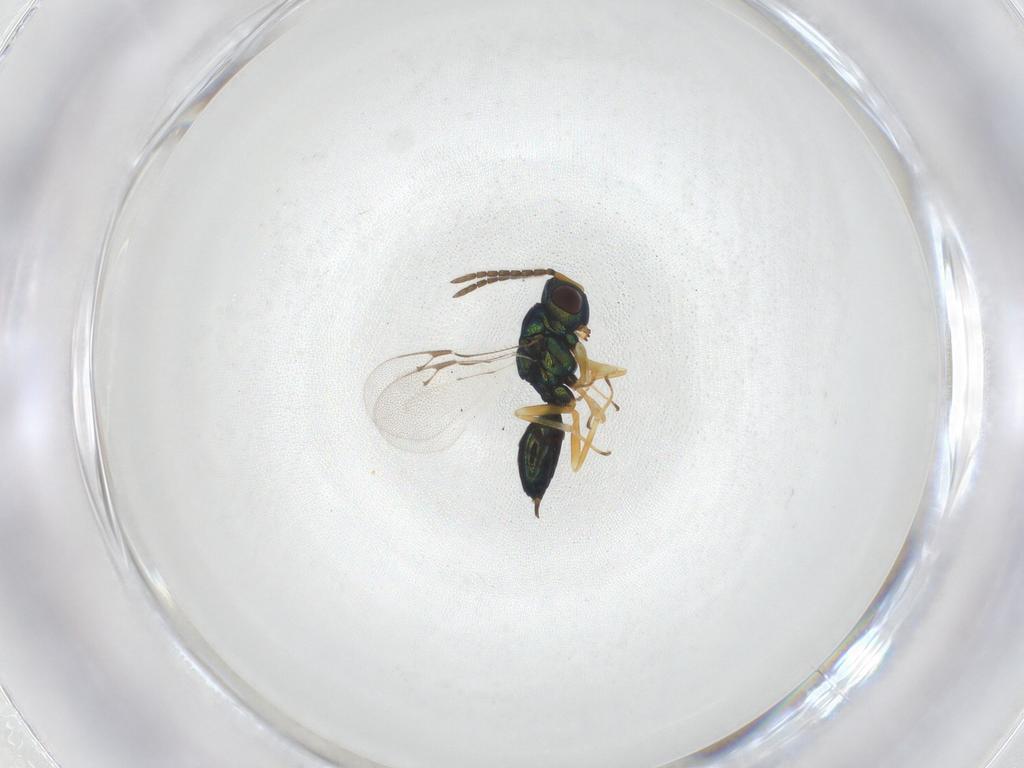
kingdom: Animalia
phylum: Arthropoda
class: Insecta
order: Hymenoptera
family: Pteromalidae
